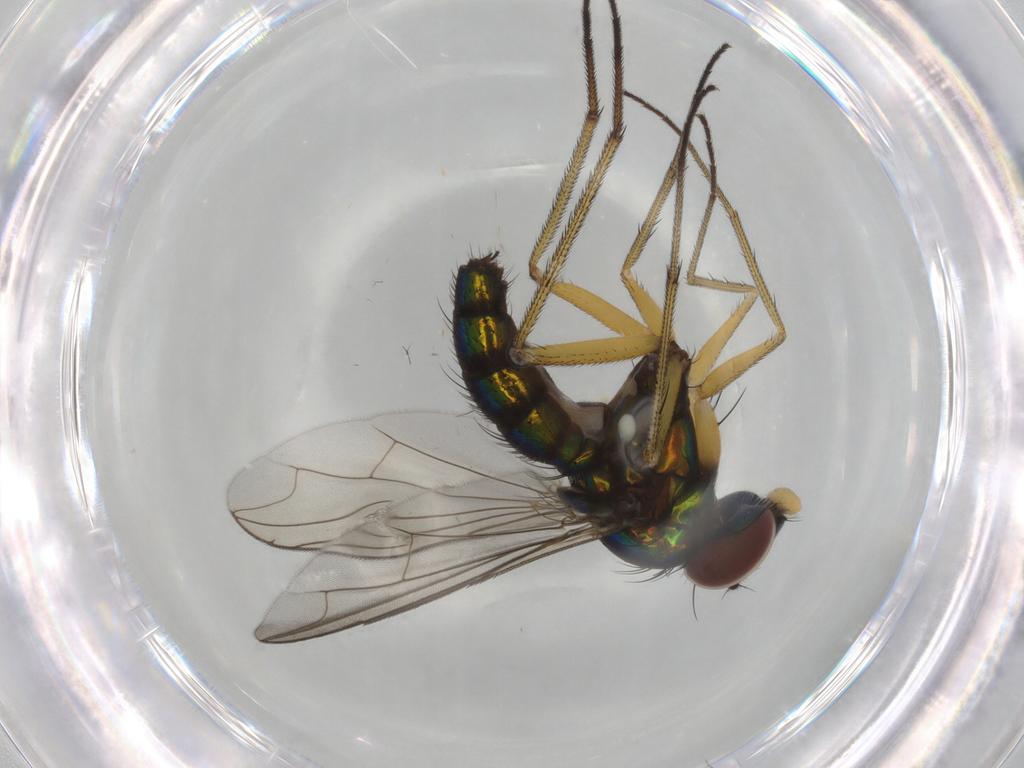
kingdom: Animalia
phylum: Arthropoda
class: Insecta
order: Diptera
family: Dolichopodidae
